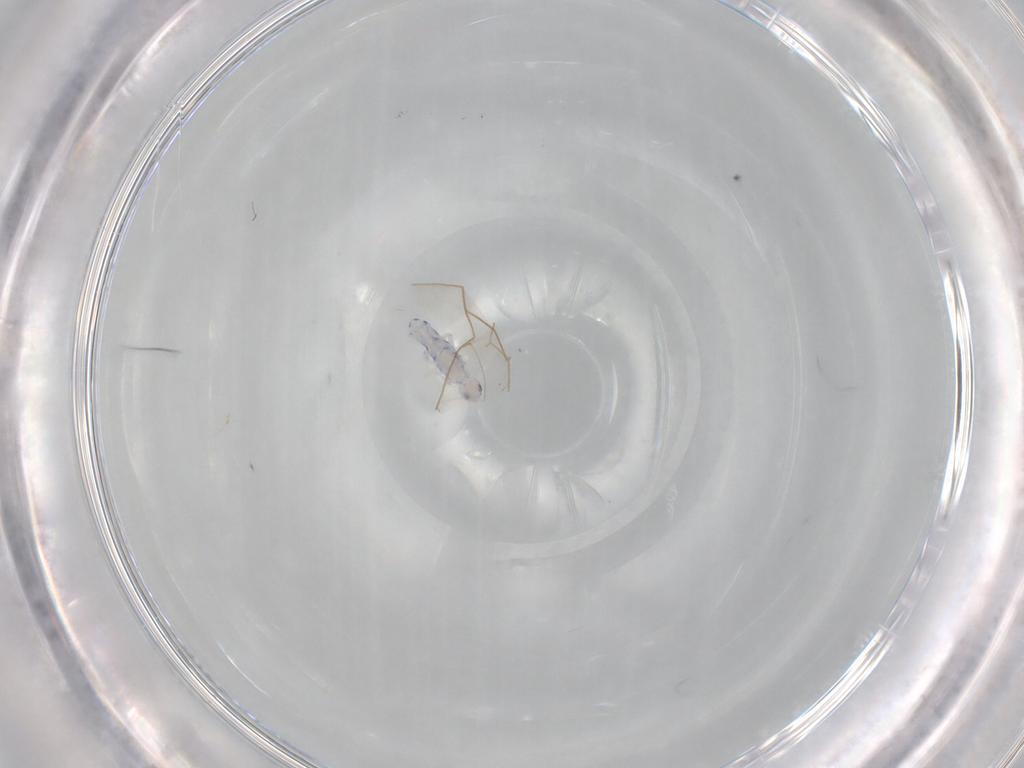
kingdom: Animalia
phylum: Arthropoda
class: Collembola
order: Entomobryomorpha
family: Entomobryidae
